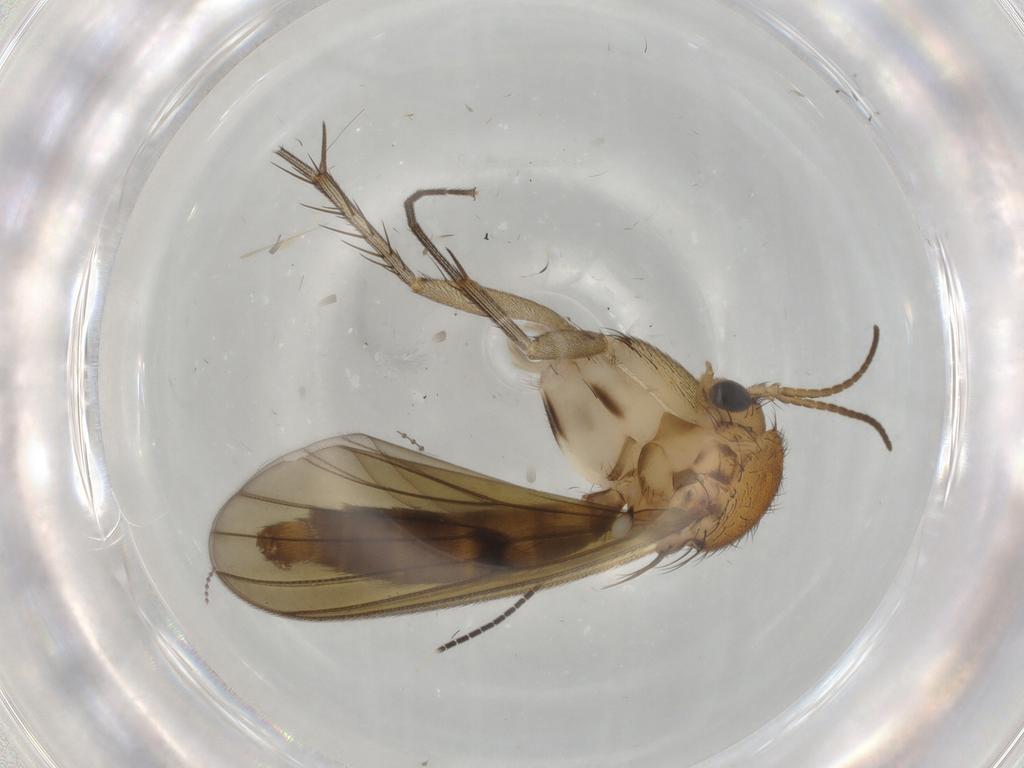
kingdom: Animalia
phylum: Arthropoda
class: Insecta
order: Diptera
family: Mycetophilidae
